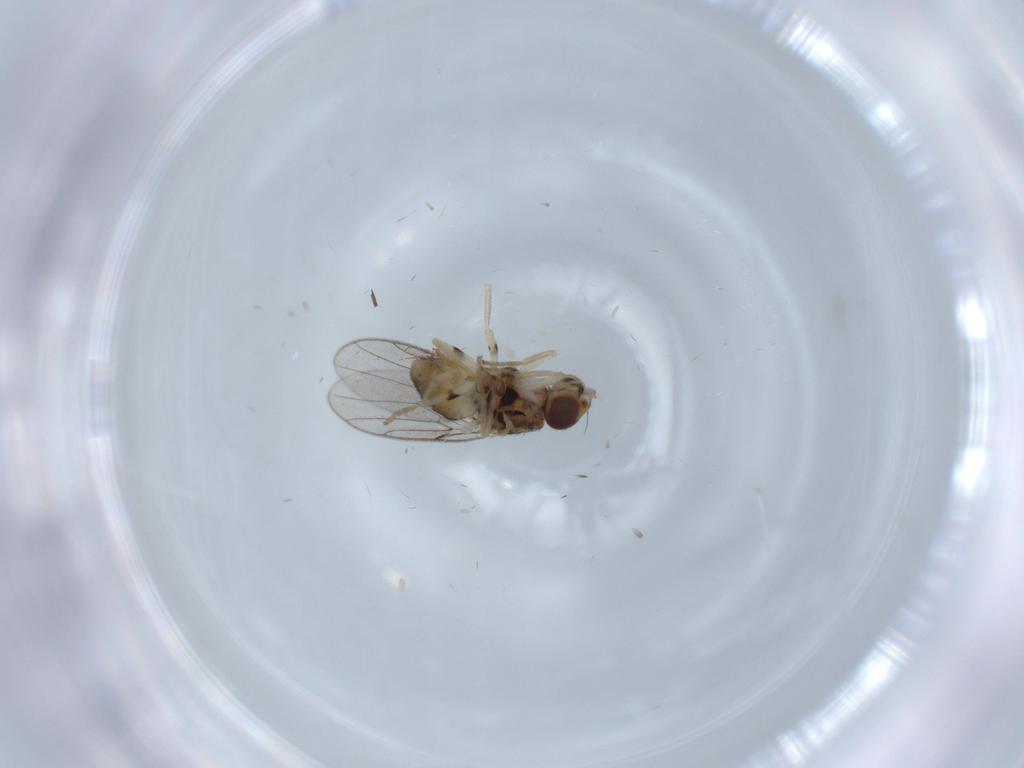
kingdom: Animalia
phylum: Arthropoda
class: Insecta
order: Diptera
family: Chloropidae
